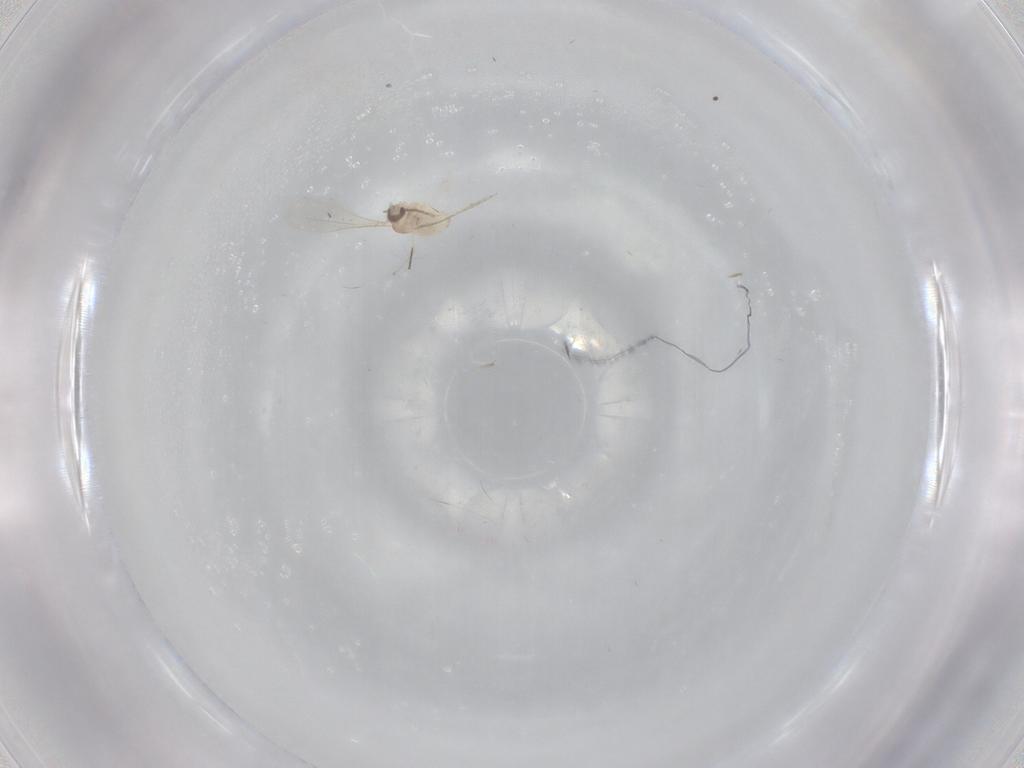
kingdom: Animalia
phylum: Arthropoda
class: Insecta
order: Diptera
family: Cecidomyiidae
